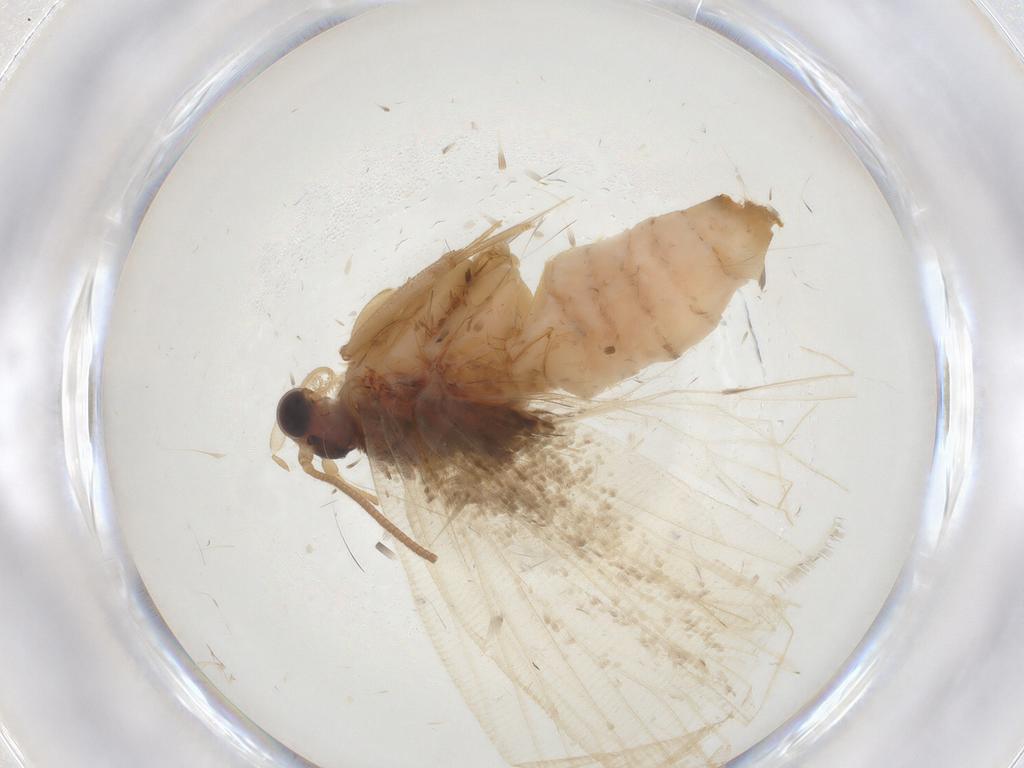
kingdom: Animalia
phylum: Arthropoda
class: Insecta
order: Lepidoptera
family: Tortricidae
